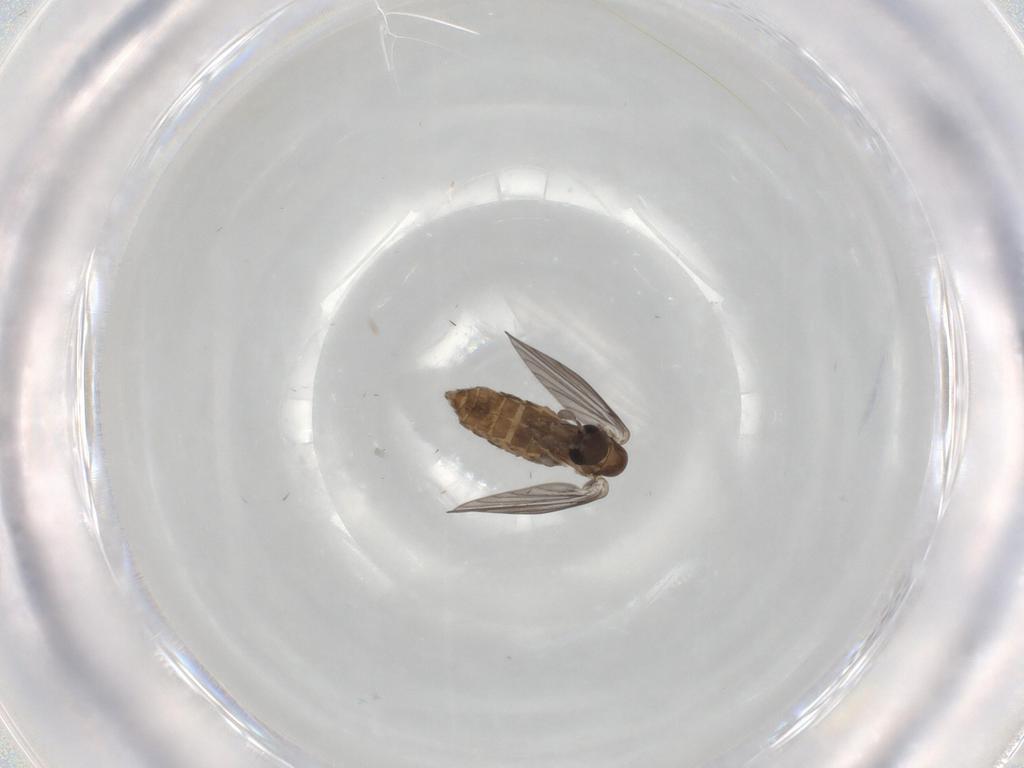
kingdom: Animalia
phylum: Arthropoda
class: Insecta
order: Diptera
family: Psychodidae
